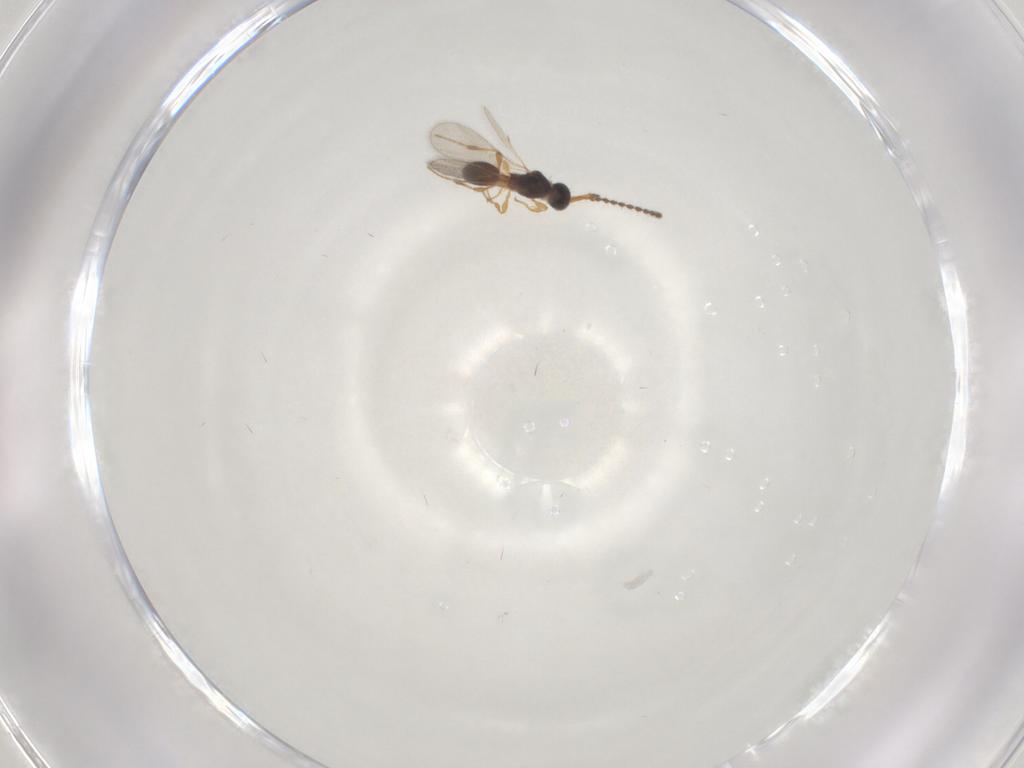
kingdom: Animalia
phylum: Arthropoda
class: Insecta
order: Hymenoptera
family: Diapriidae
